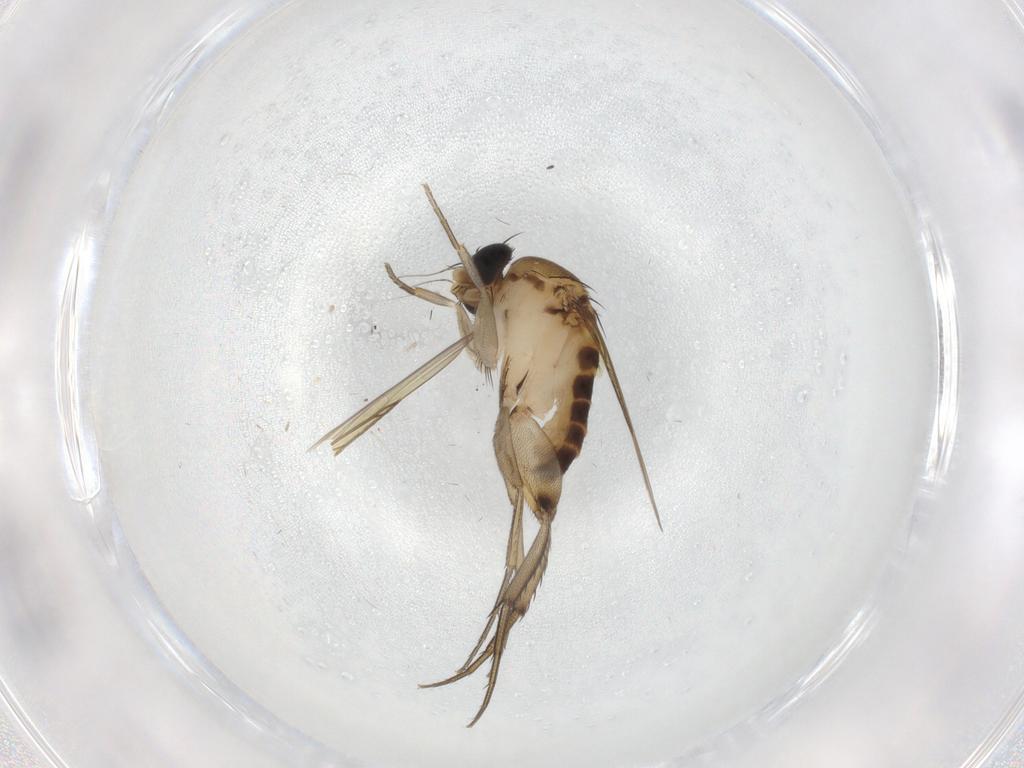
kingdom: Animalia
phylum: Arthropoda
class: Insecta
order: Diptera
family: Phoridae
